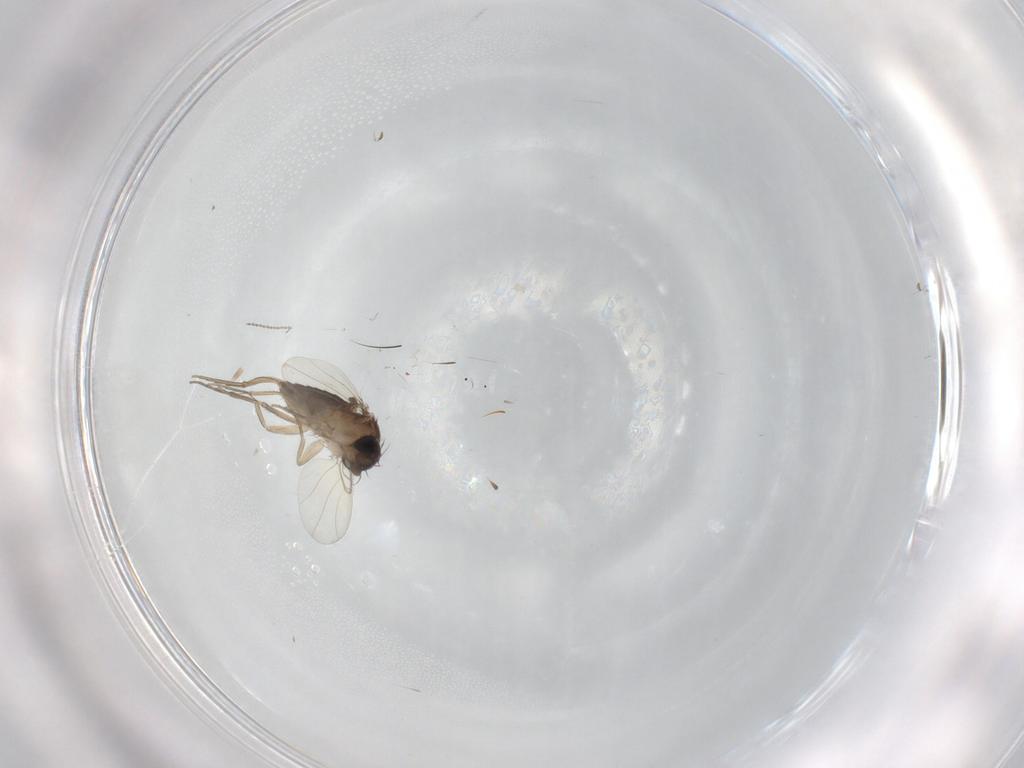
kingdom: Animalia
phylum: Arthropoda
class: Insecta
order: Diptera
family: Phoridae
